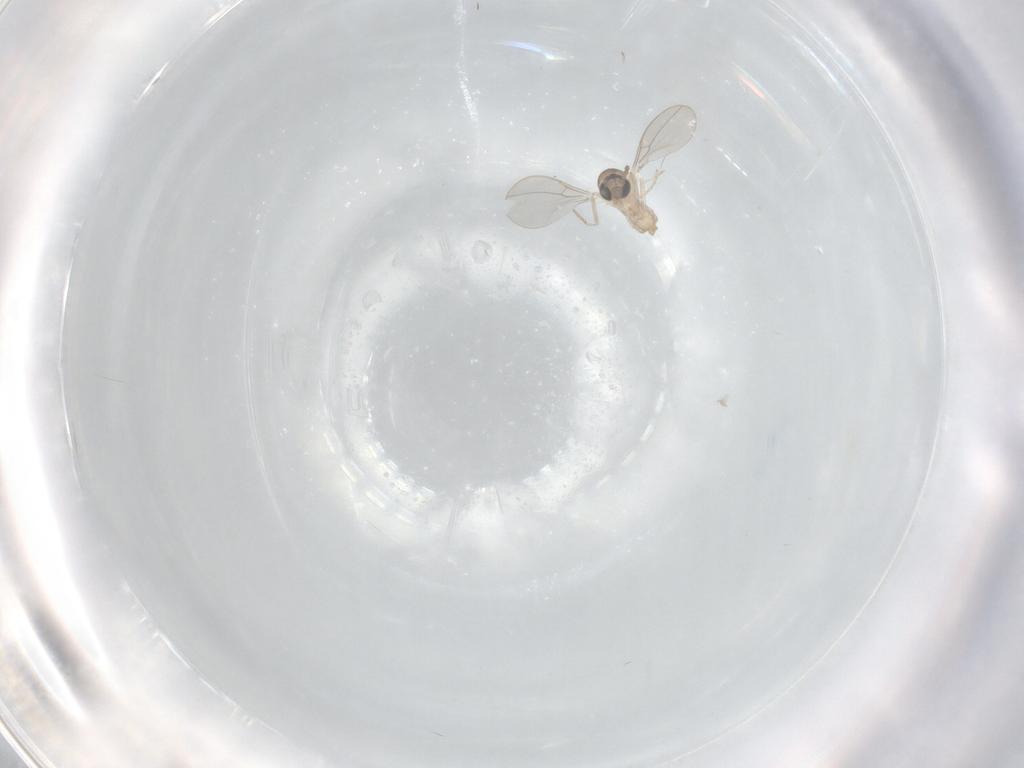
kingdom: Animalia
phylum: Arthropoda
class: Insecta
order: Diptera
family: Cecidomyiidae
